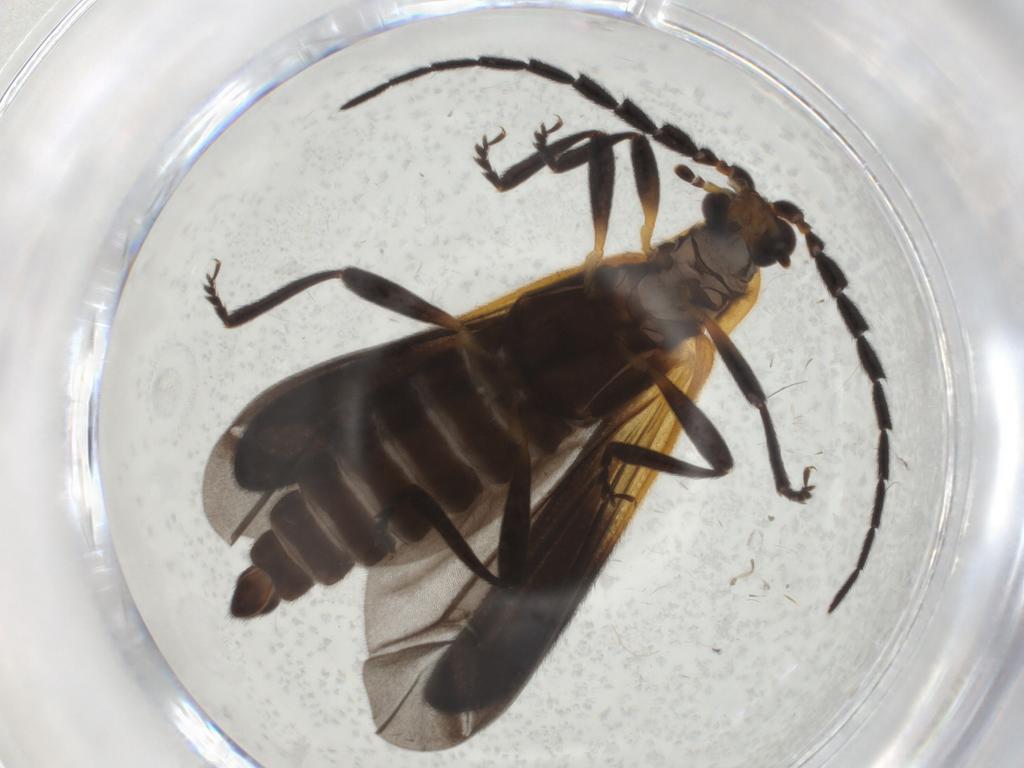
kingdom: Animalia
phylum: Arthropoda
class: Insecta
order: Coleoptera
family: Lycidae
